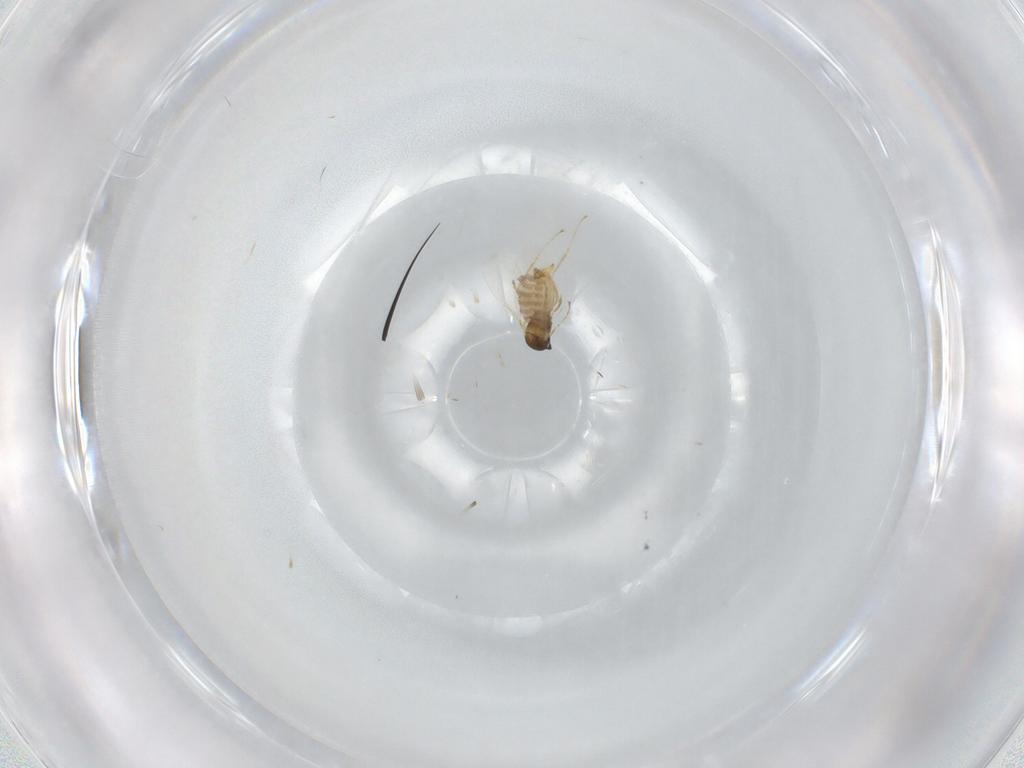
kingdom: Animalia
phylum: Arthropoda
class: Insecta
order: Diptera
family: Cecidomyiidae
